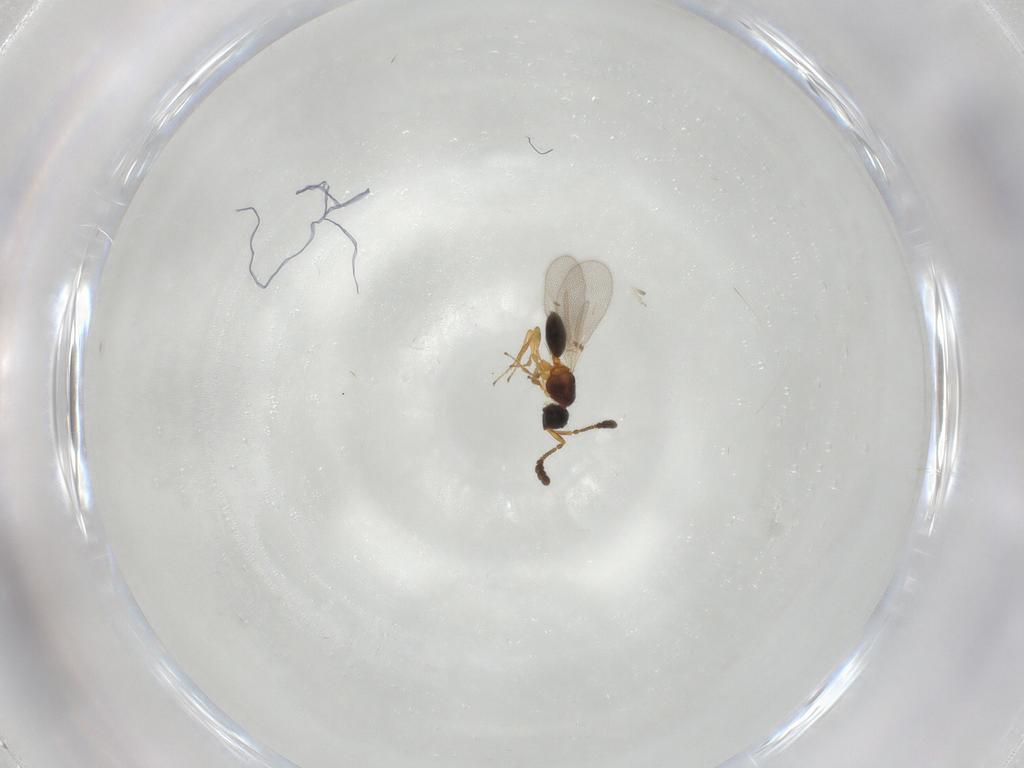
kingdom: Animalia
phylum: Arthropoda
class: Insecta
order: Hymenoptera
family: Diapriidae
